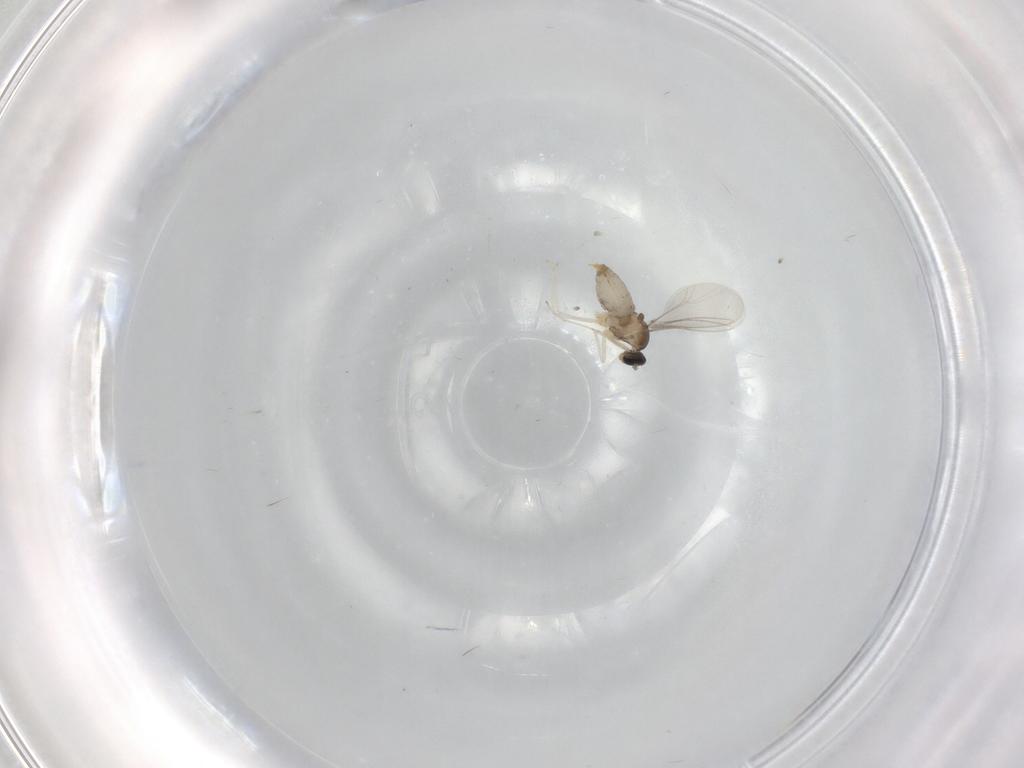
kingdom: Animalia
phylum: Arthropoda
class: Insecta
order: Diptera
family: Cecidomyiidae
